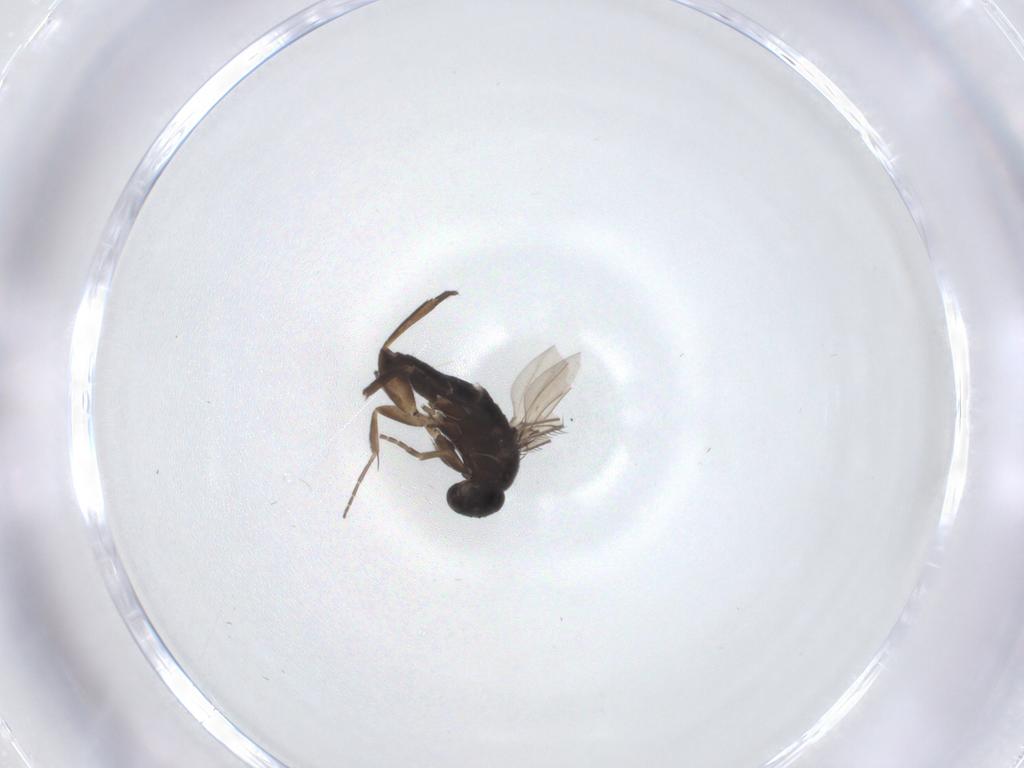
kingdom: Animalia
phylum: Arthropoda
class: Insecta
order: Diptera
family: Phoridae
